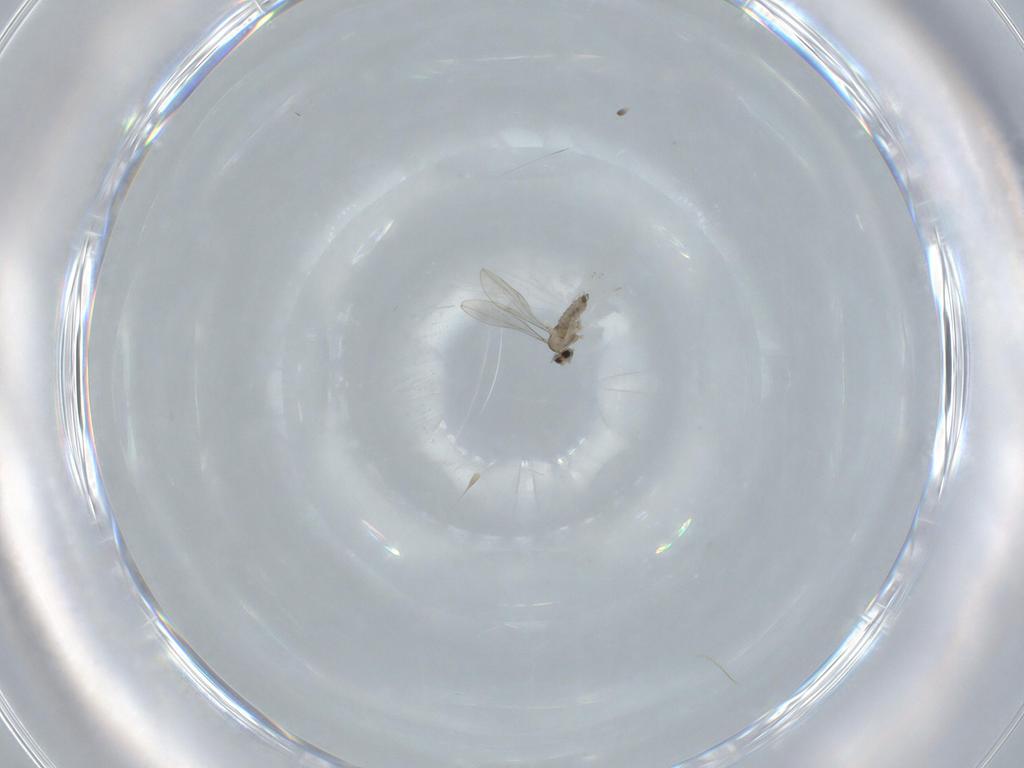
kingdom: Animalia
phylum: Arthropoda
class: Insecta
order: Diptera
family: Cecidomyiidae
